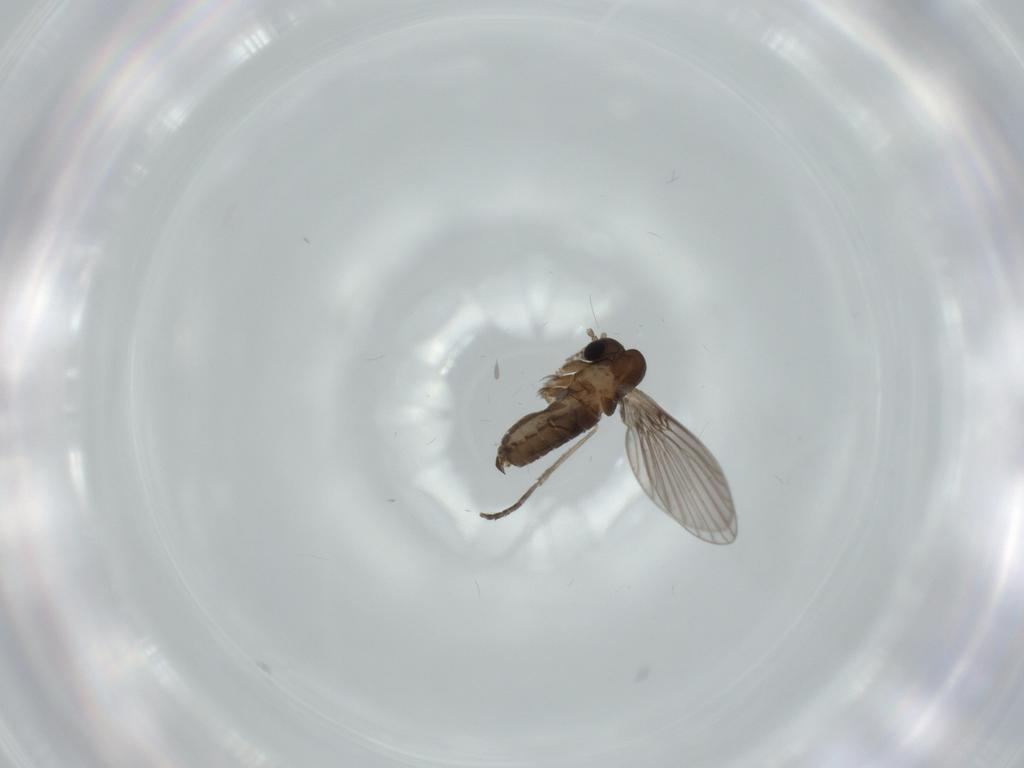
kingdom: Animalia
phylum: Arthropoda
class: Insecta
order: Diptera
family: Psychodidae
